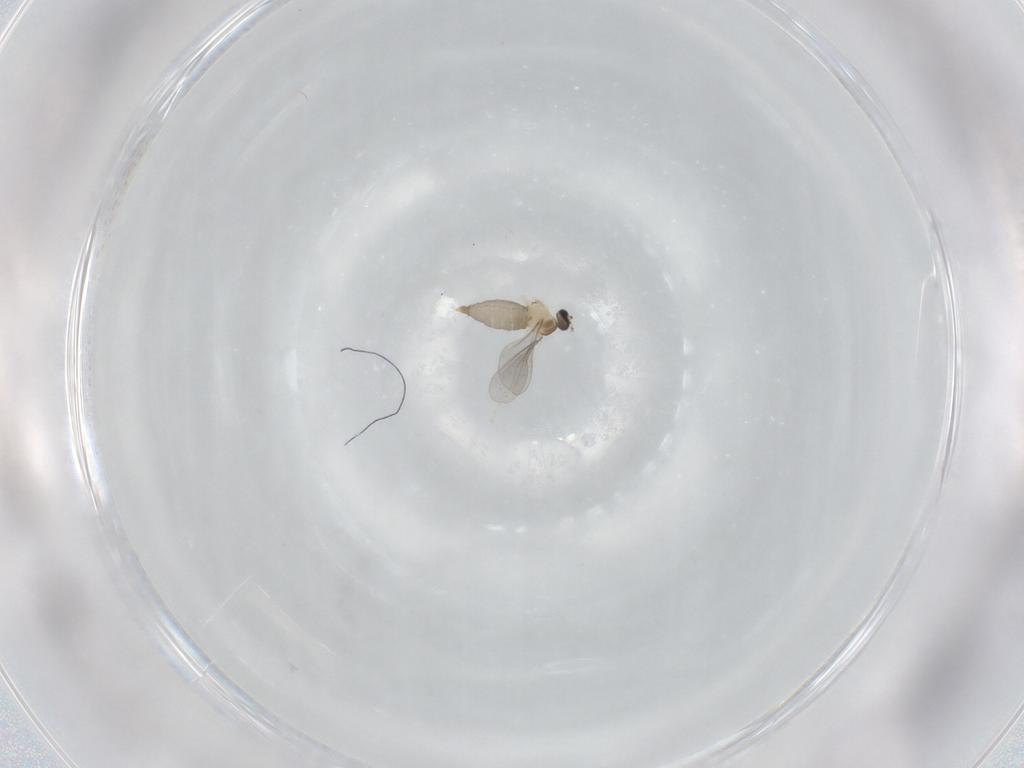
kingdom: Animalia
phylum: Arthropoda
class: Insecta
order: Diptera
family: Cecidomyiidae
